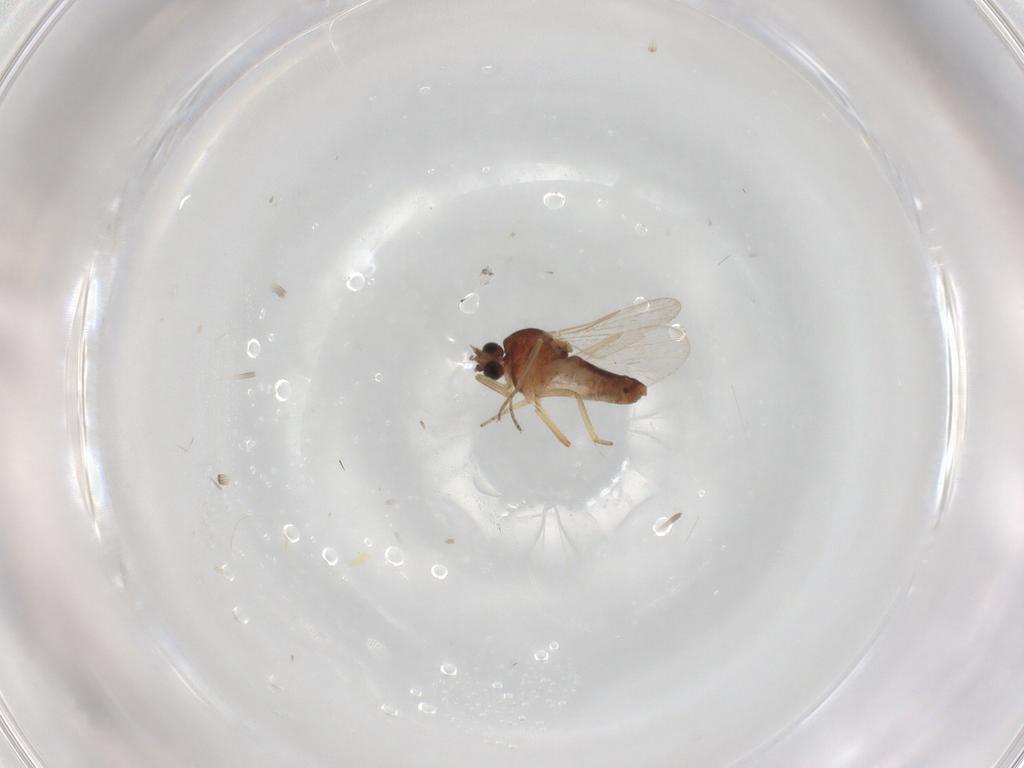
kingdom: Animalia
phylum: Arthropoda
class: Insecta
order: Diptera
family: Ceratopogonidae
